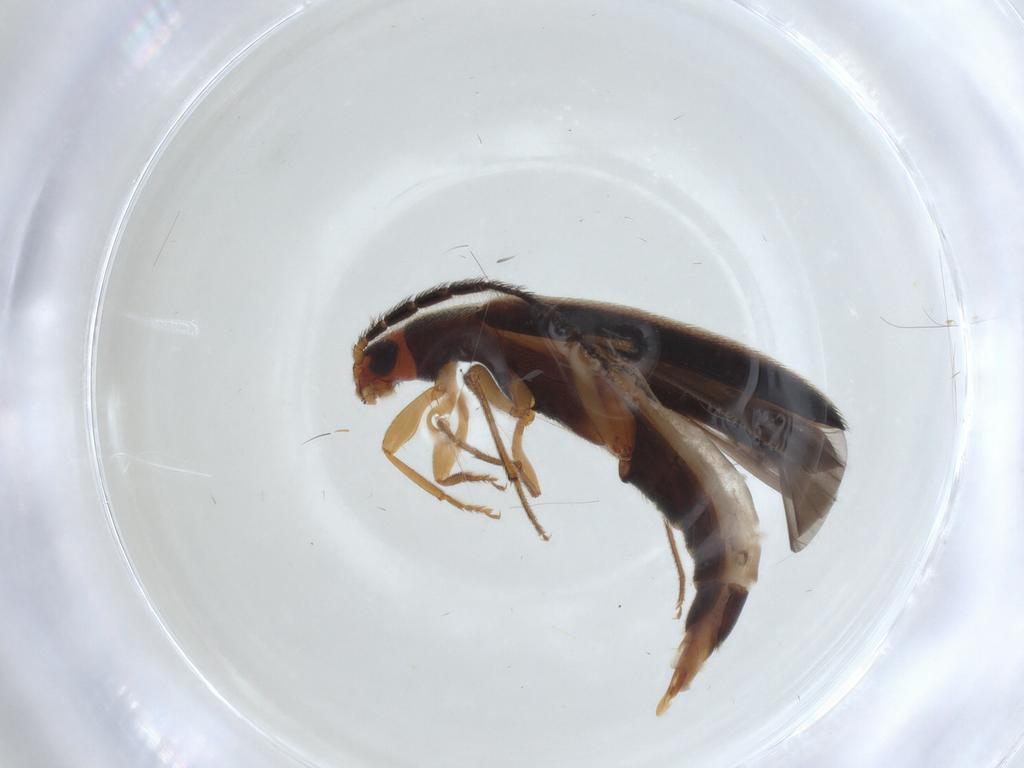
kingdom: Animalia
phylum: Arthropoda
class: Insecta
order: Coleoptera
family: Melandryidae
